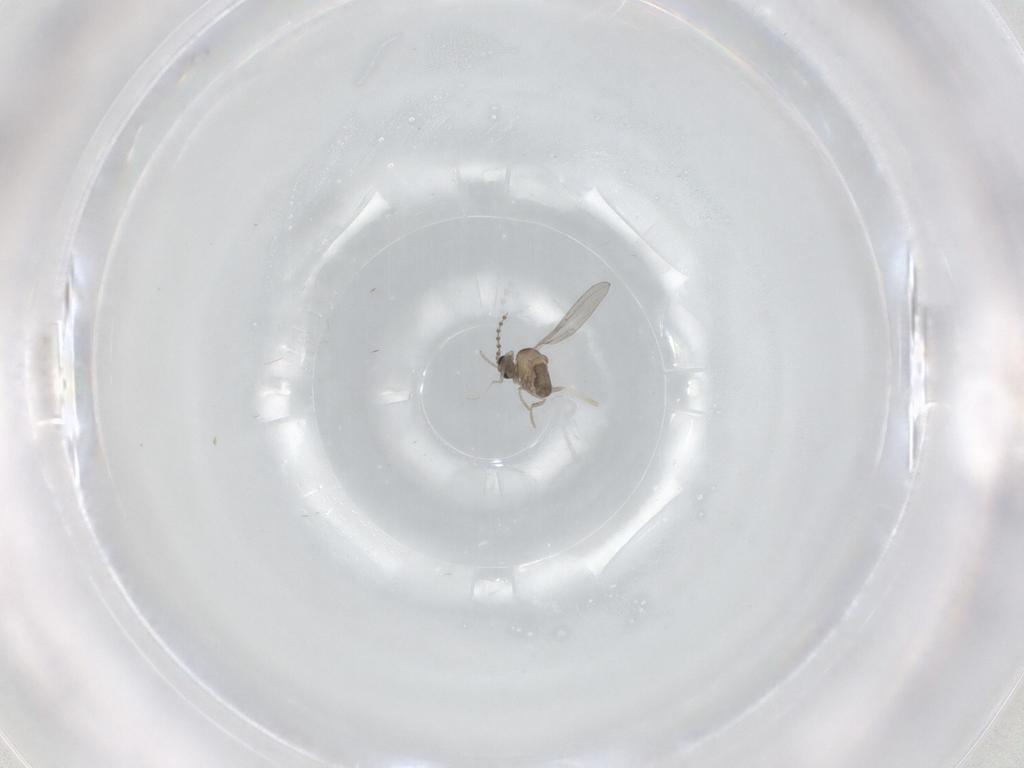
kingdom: Animalia
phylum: Arthropoda
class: Insecta
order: Diptera
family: Cecidomyiidae
